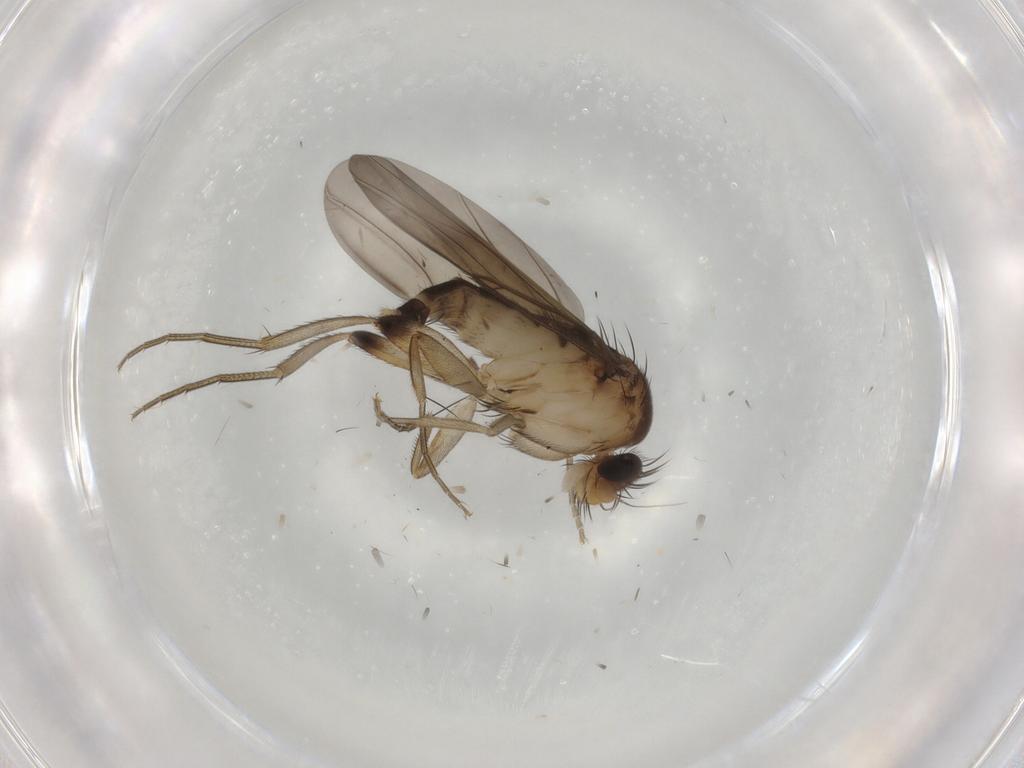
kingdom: Animalia
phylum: Arthropoda
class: Insecta
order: Diptera
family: Phoridae
